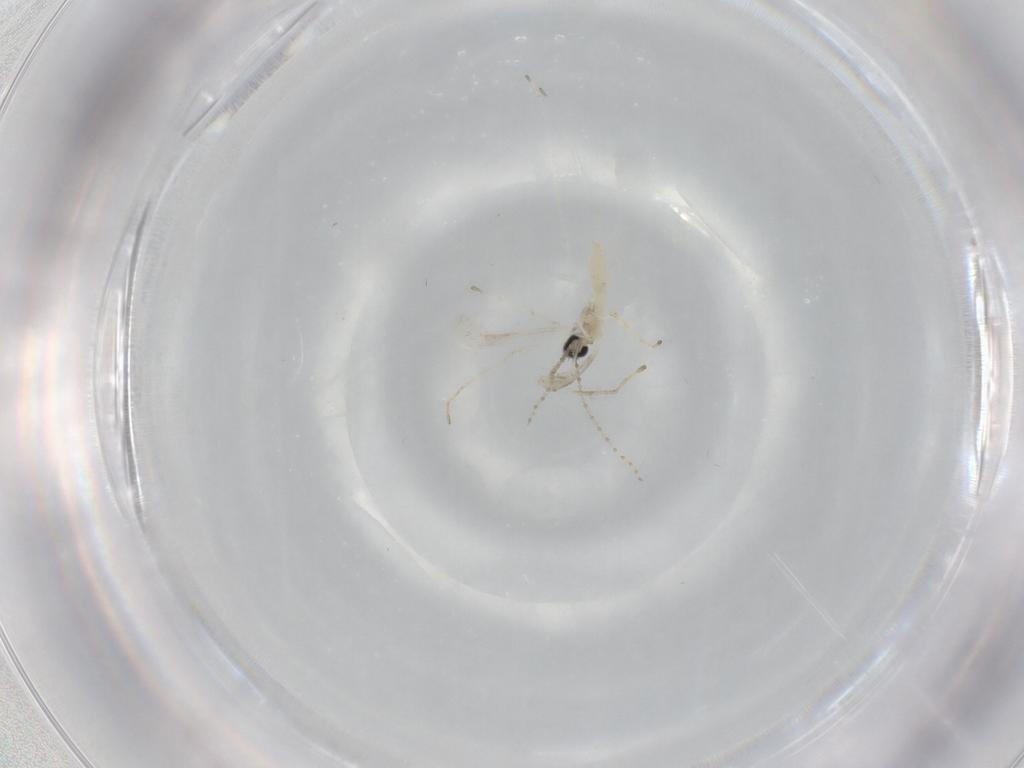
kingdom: Animalia
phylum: Arthropoda
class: Insecta
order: Diptera
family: Cecidomyiidae
